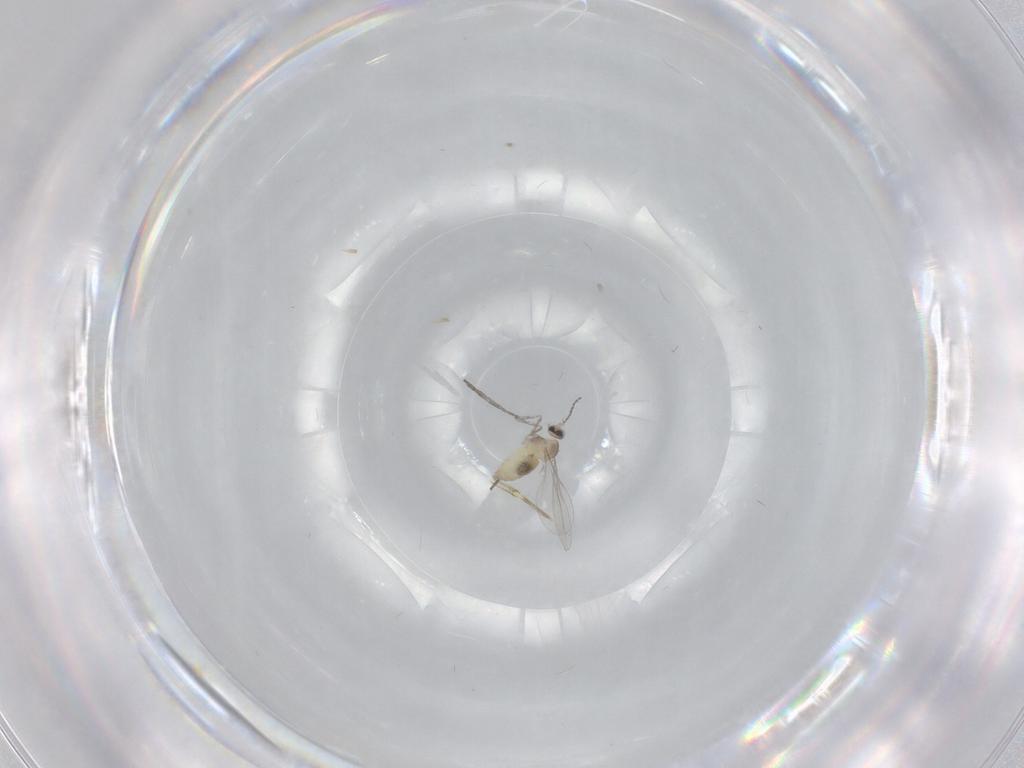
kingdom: Animalia
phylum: Arthropoda
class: Insecta
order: Diptera
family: Cecidomyiidae
